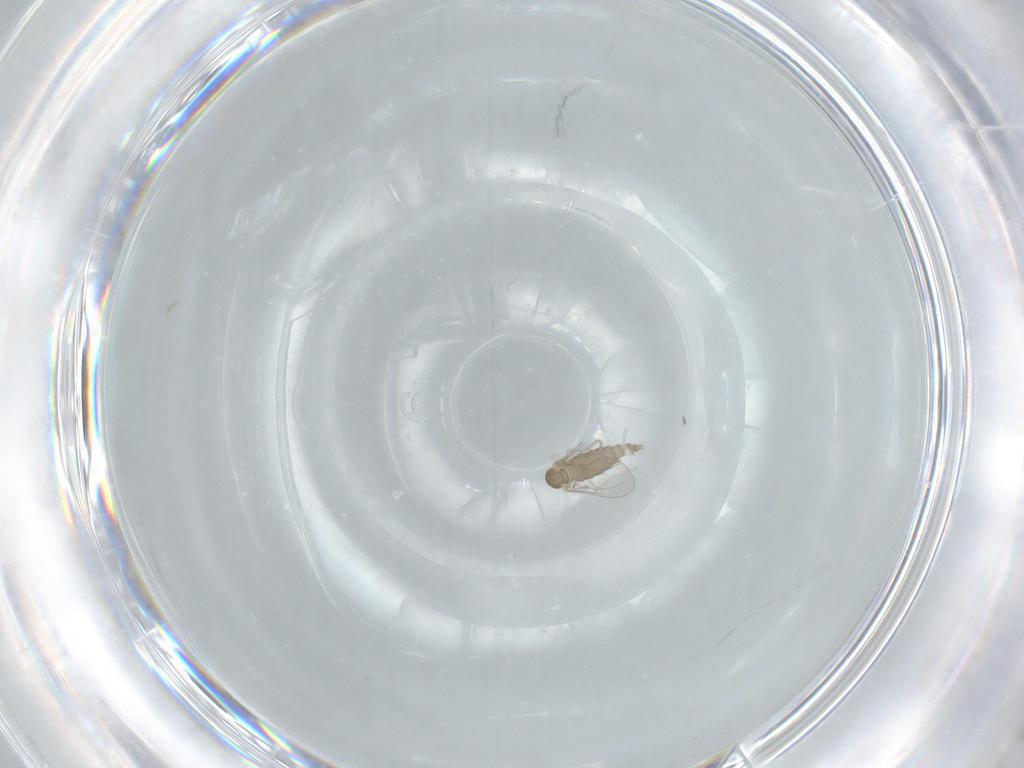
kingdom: Animalia
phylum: Arthropoda
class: Insecta
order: Diptera
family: Cecidomyiidae
